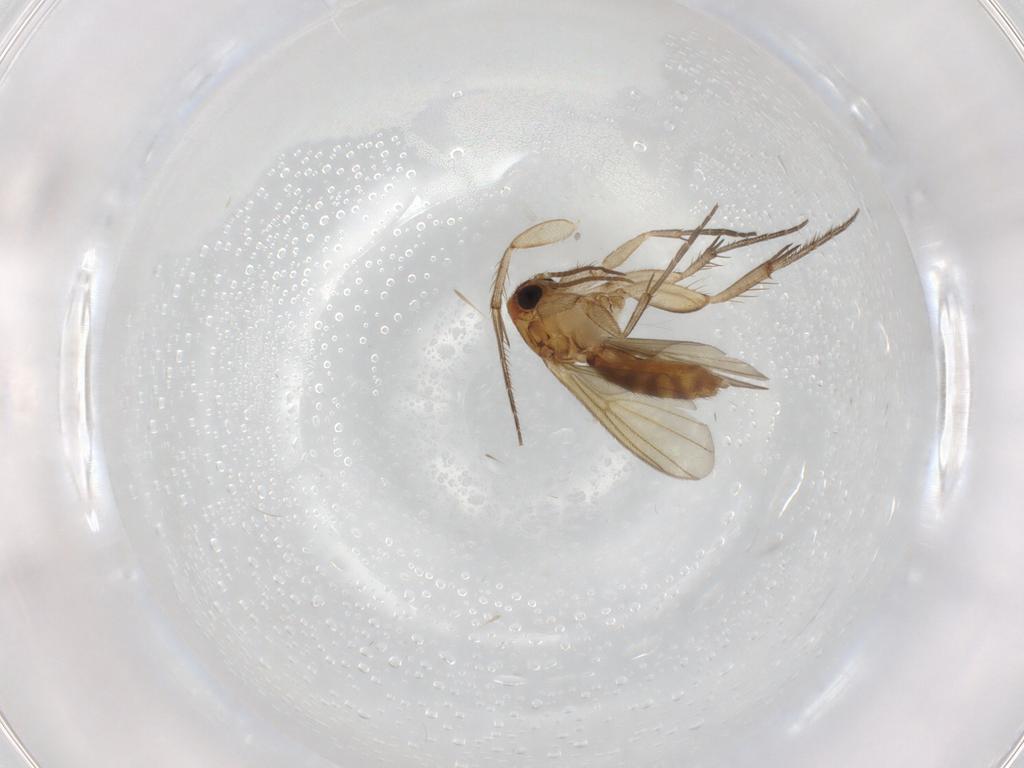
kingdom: Animalia
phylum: Arthropoda
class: Insecta
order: Diptera
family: Mycetophilidae
